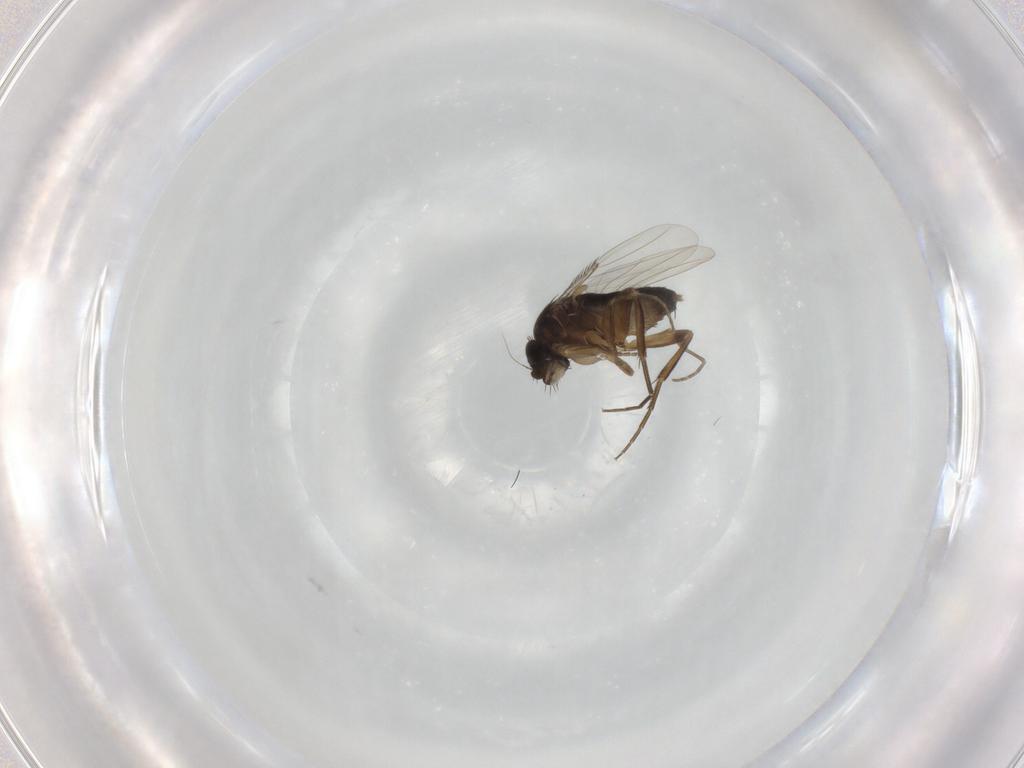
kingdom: Animalia
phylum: Arthropoda
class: Insecta
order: Diptera
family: Phoridae
